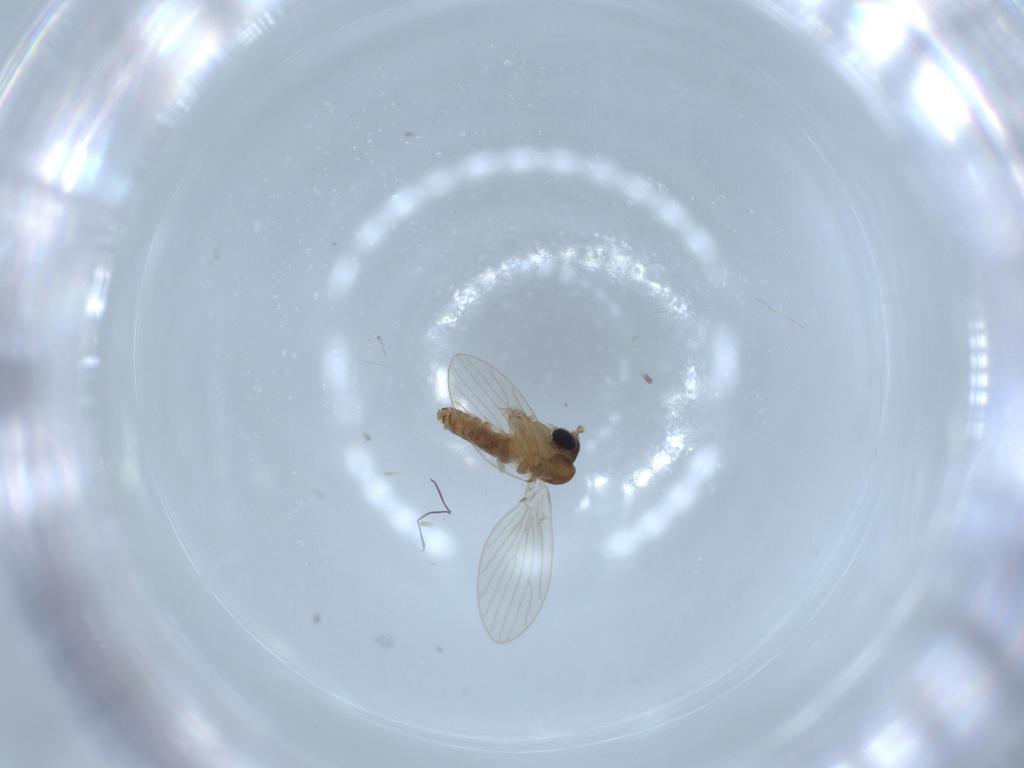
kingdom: Animalia
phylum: Arthropoda
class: Insecta
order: Diptera
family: Psychodidae
